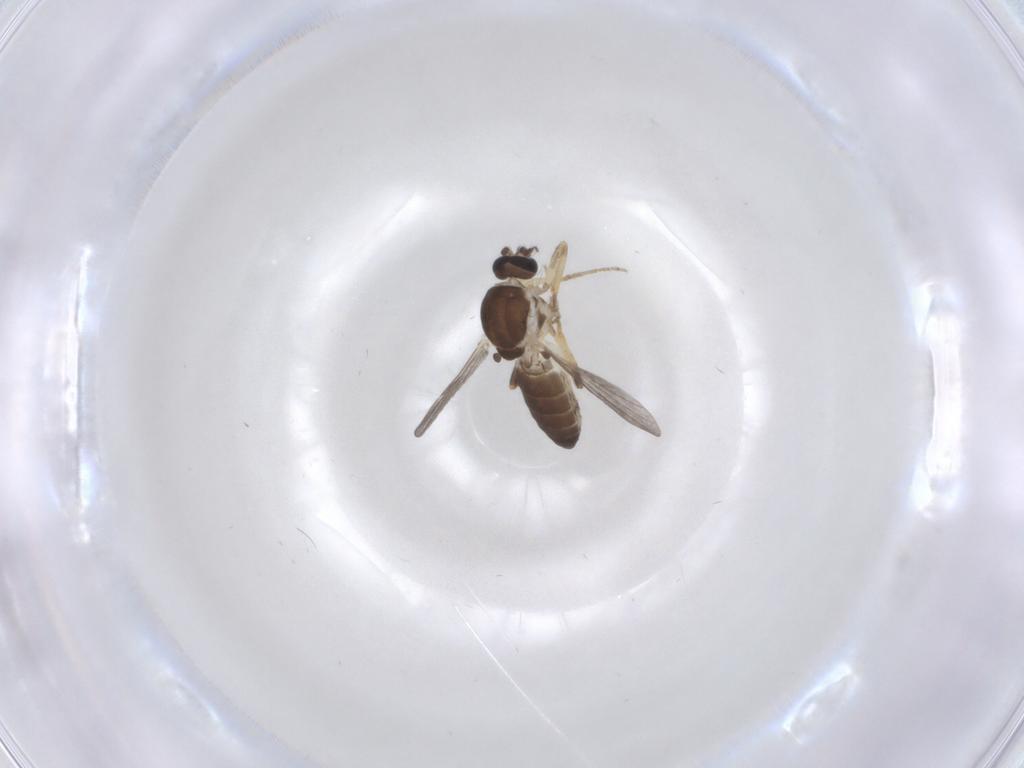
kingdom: Animalia
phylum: Arthropoda
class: Insecta
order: Diptera
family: Ceratopogonidae
